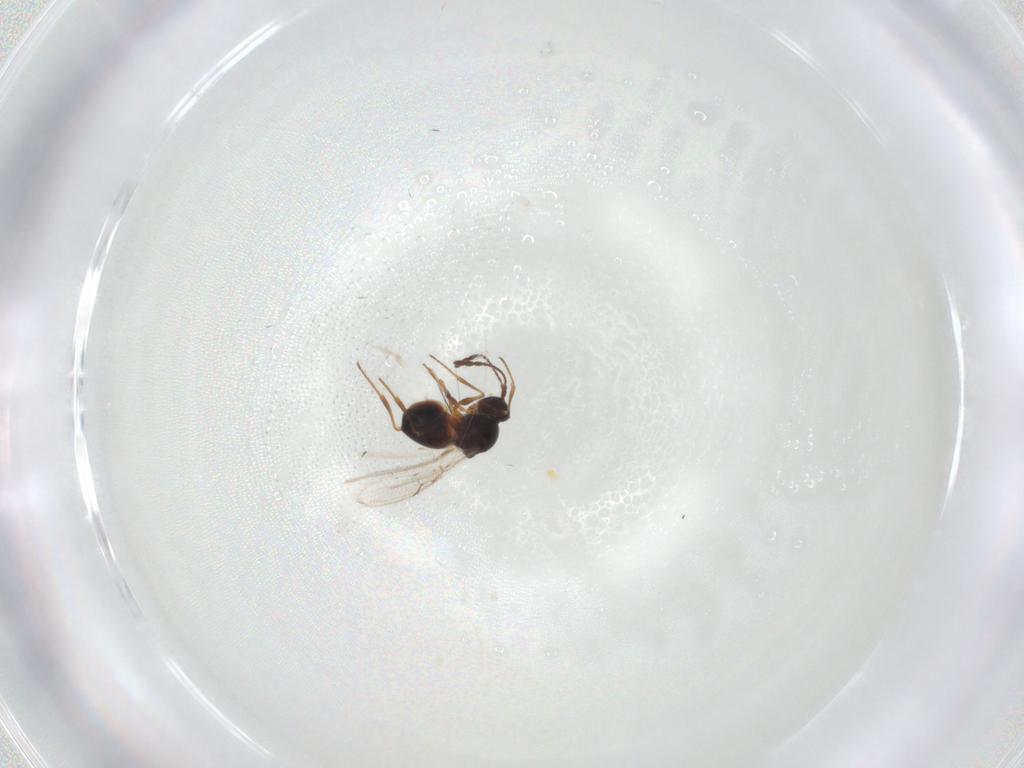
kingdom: Animalia
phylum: Arthropoda
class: Insecta
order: Hymenoptera
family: Figitidae
